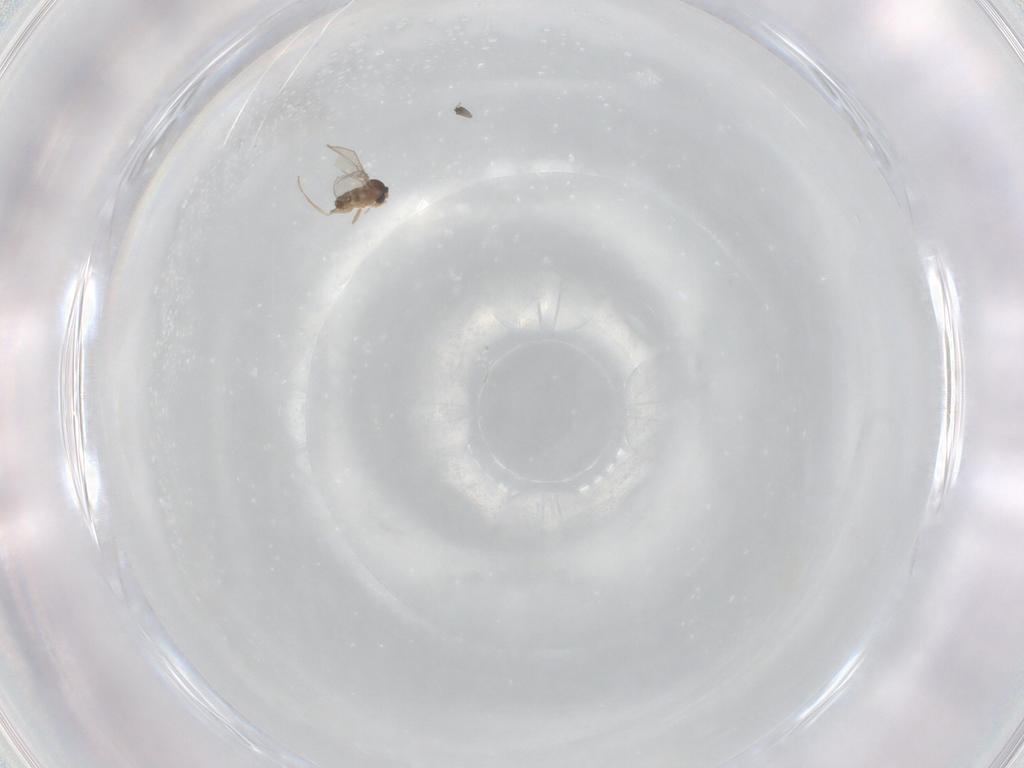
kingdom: Animalia
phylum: Arthropoda
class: Insecta
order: Diptera
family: Cecidomyiidae
